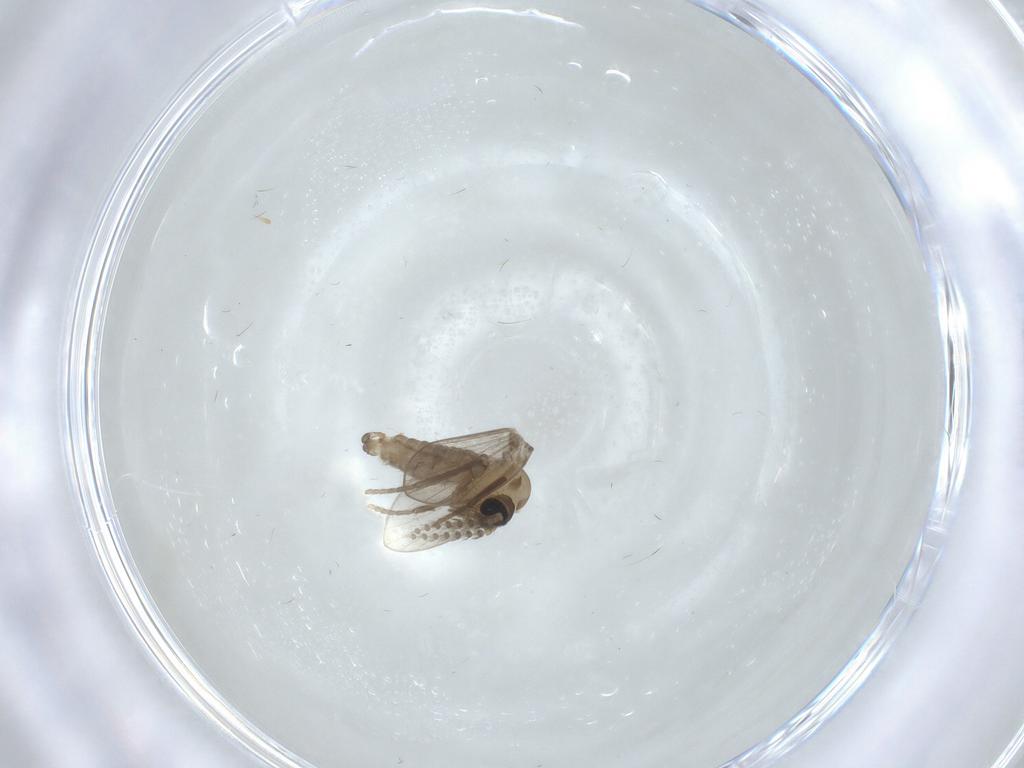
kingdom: Animalia
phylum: Arthropoda
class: Insecta
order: Diptera
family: Psychodidae
